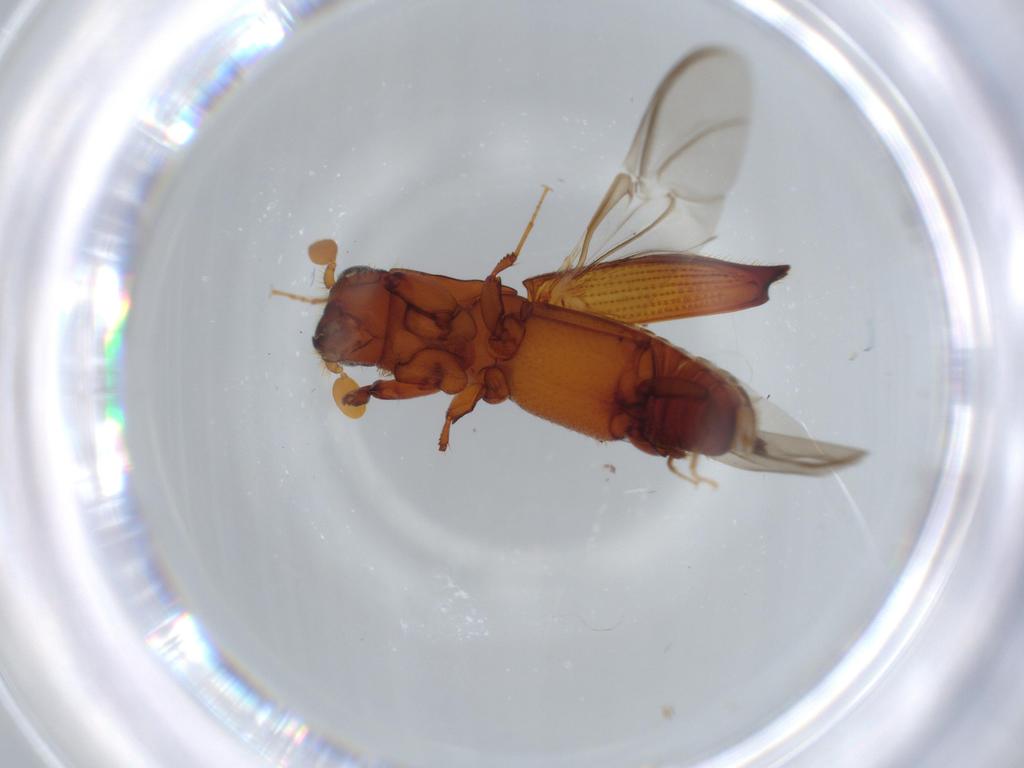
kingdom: Animalia
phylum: Arthropoda
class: Insecta
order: Coleoptera
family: Curculionidae
